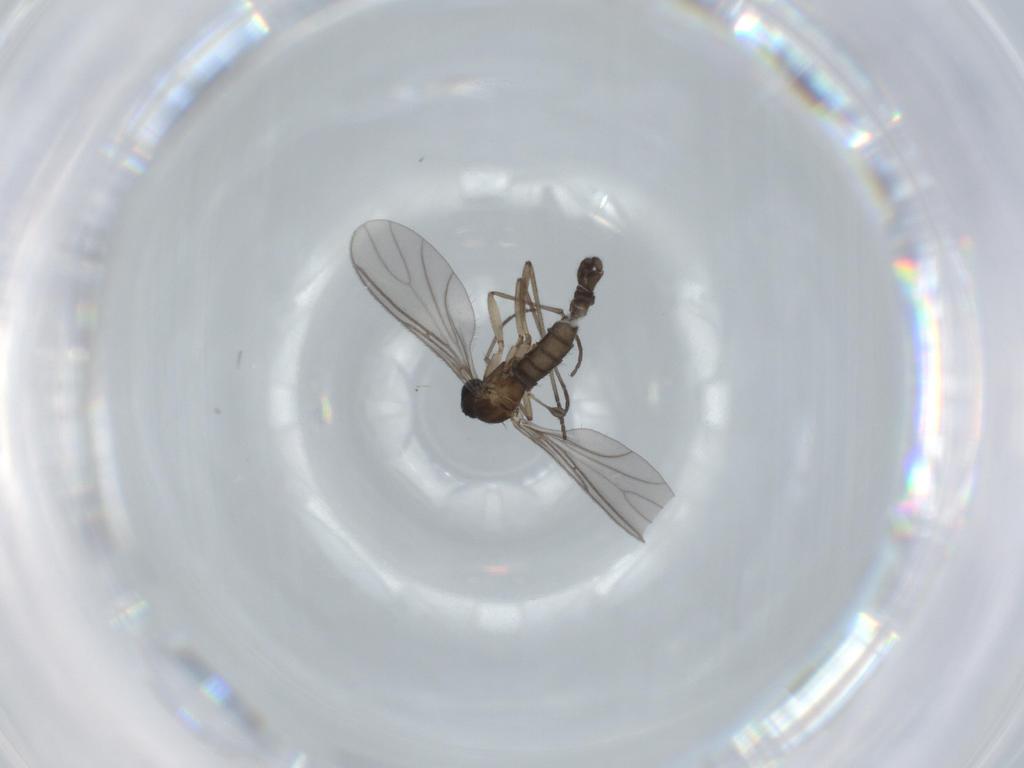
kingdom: Animalia
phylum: Arthropoda
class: Insecta
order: Diptera
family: Sciaridae
